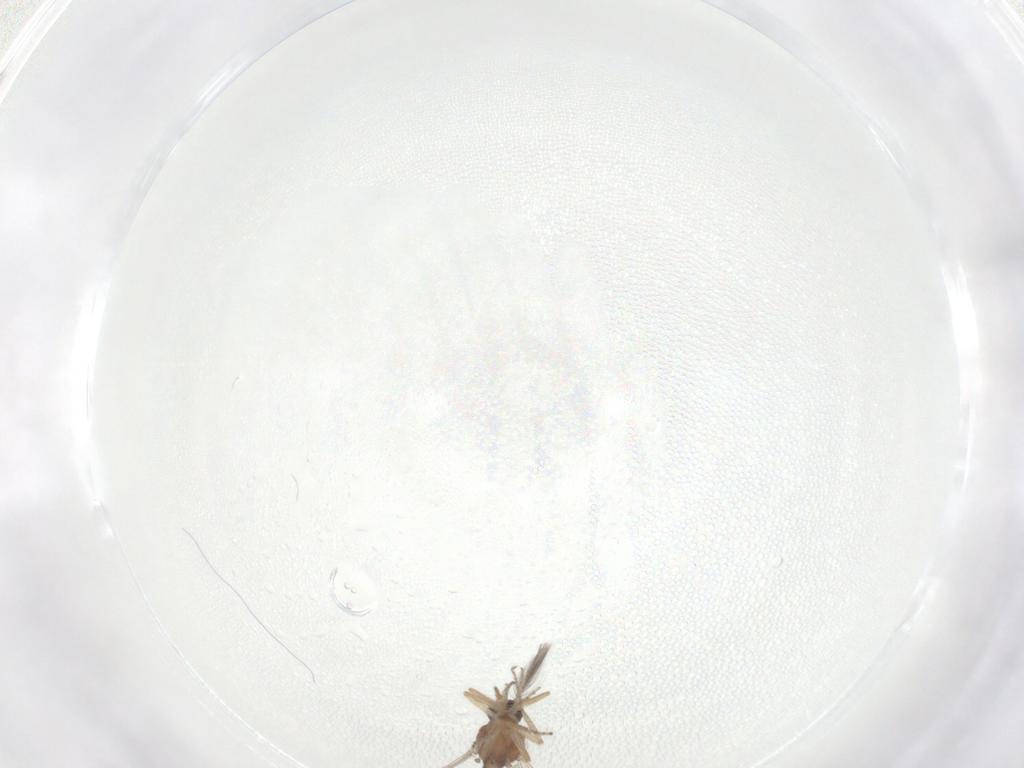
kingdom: Animalia
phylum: Arthropoda
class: Insecta
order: Diptera
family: Ceratopogonidae
